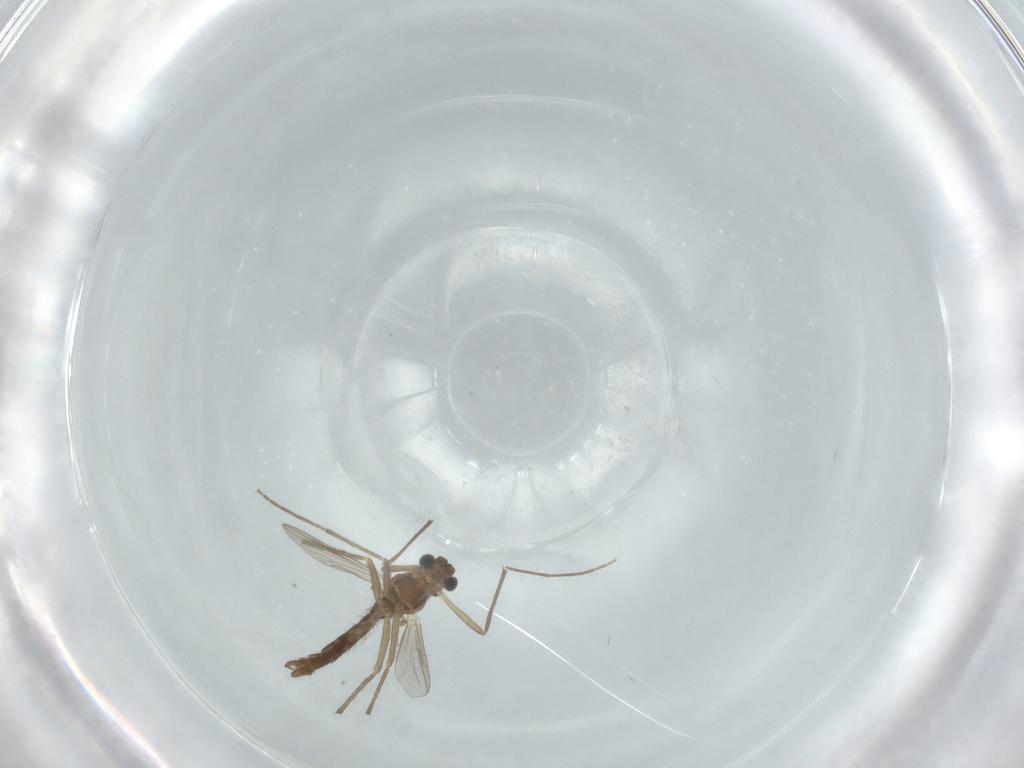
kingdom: Animalia
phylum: Arthropoda
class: Insecta
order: Diptera
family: Chironomidae
